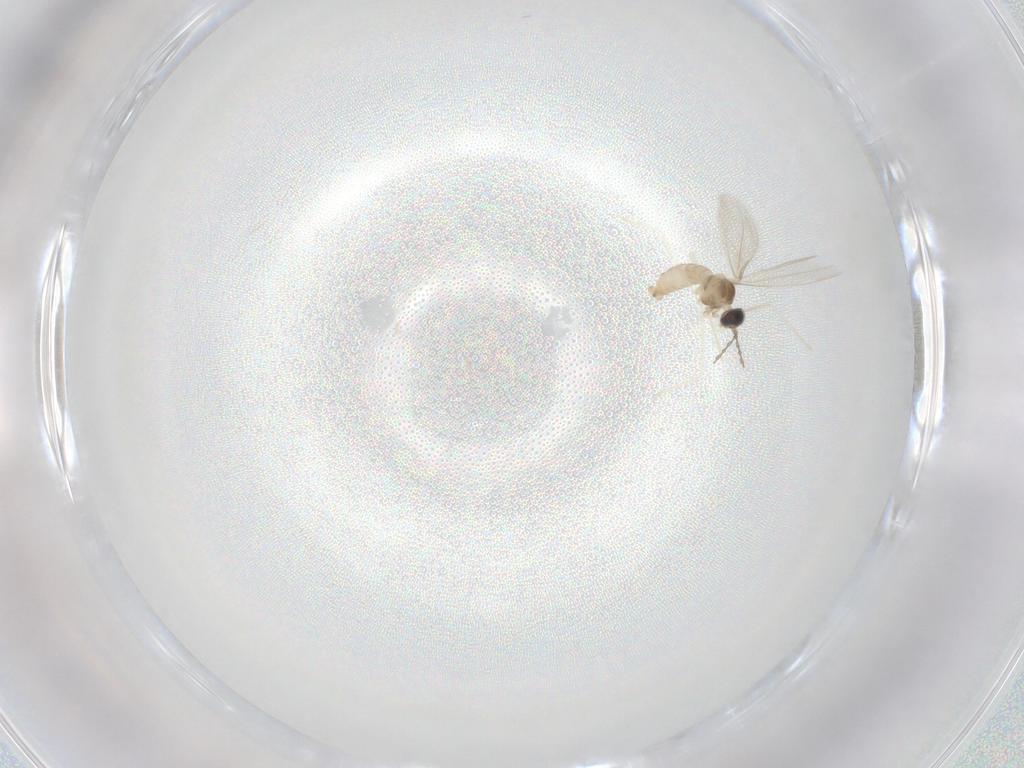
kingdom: Animalia
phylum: Arthropoda
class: Insecta
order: Diptera
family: Cecidomyiidae
